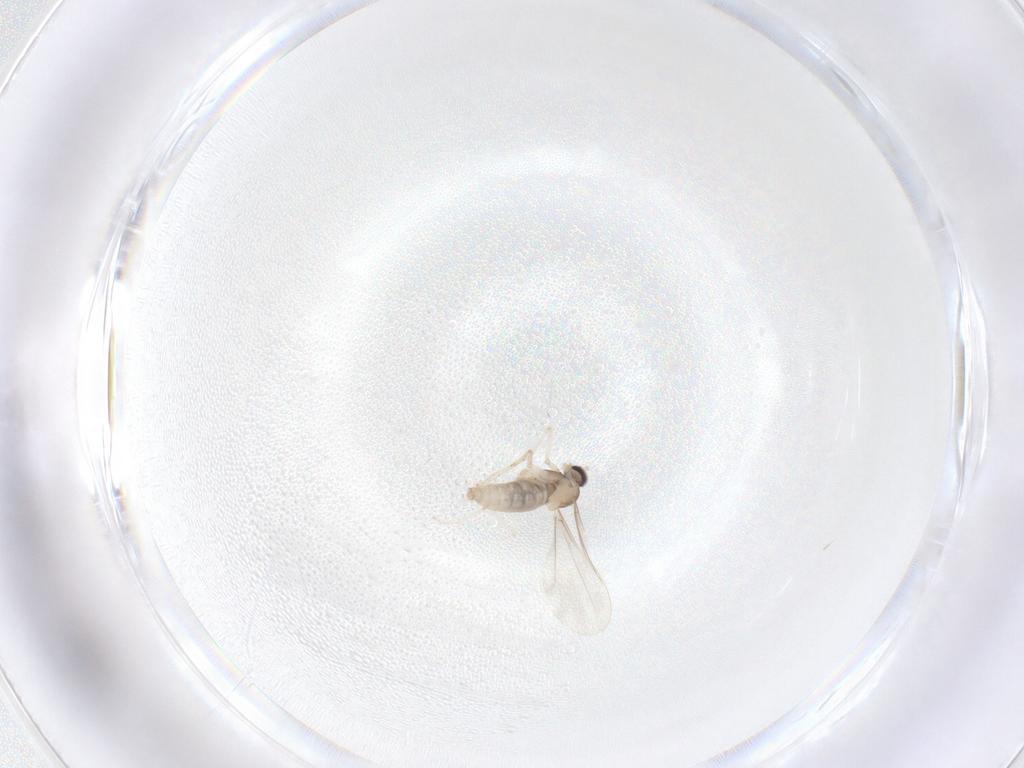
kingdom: Animalia
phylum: Arthropoda
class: Insecta
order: Diptera
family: Cecidomyiidae
